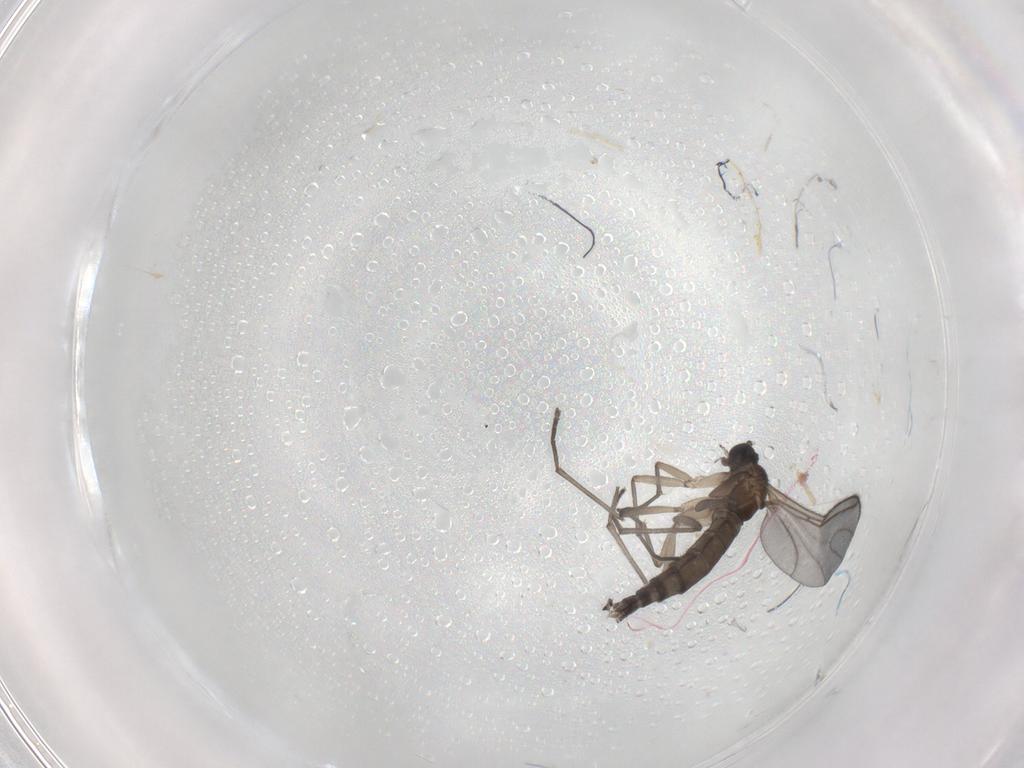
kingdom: Animalia
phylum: Arthropoda
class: Insecta
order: Diptera
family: Sciaridae
